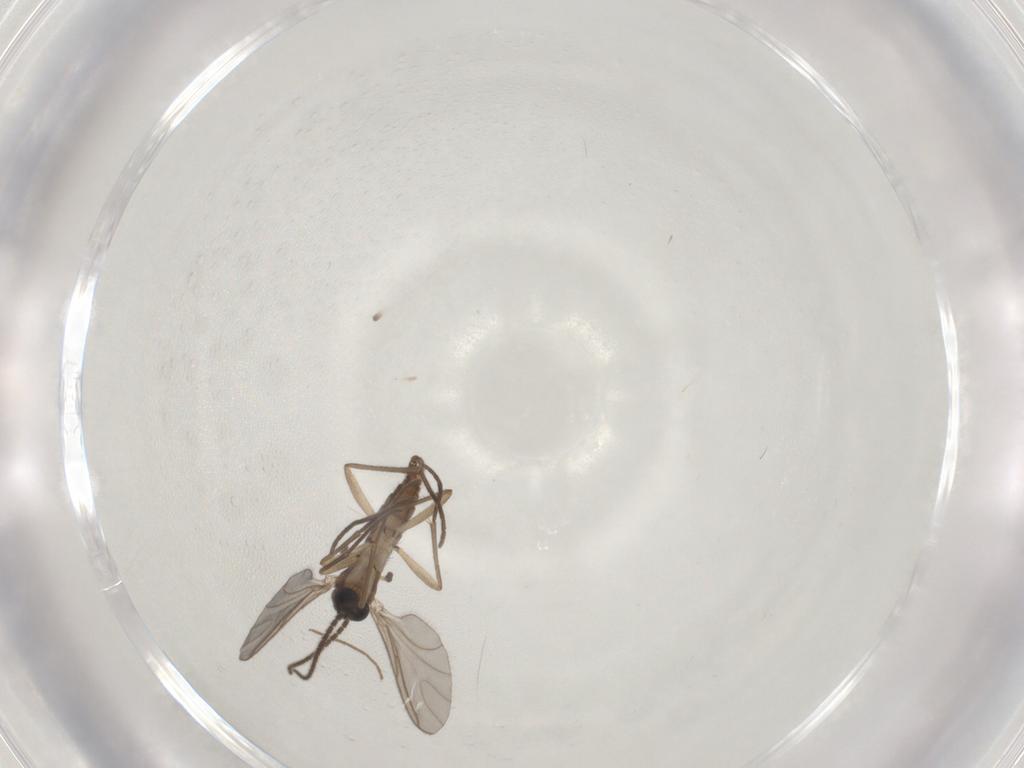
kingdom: Animalia
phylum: Arthropoda
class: Insecta
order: Diptera
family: Sciaridae
